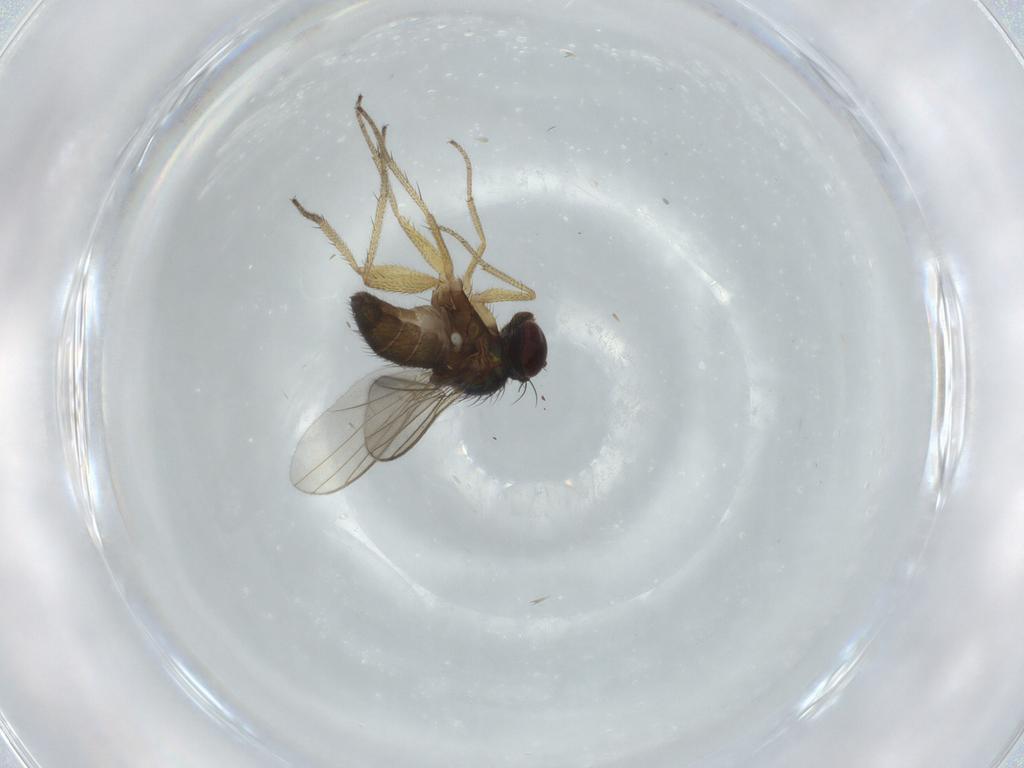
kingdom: Animalia
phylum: Arthropoda
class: Insecta
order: Diptera
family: Dolichopodidae
